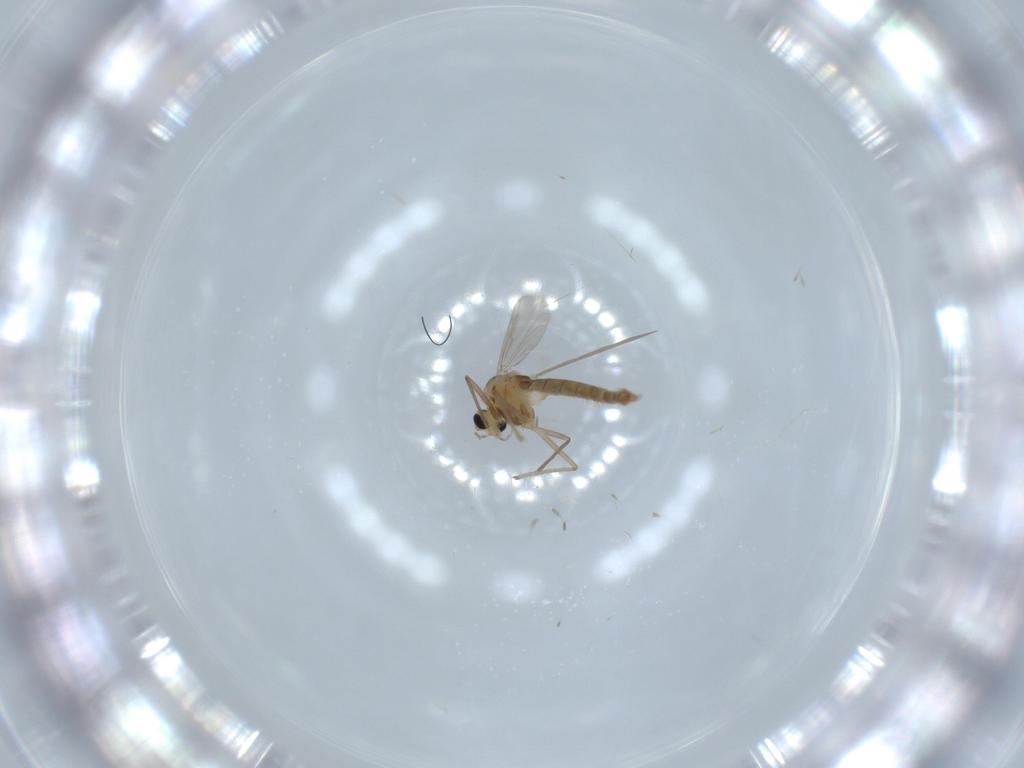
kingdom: Animalia
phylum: Arthropoda
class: Insecta
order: Diptera
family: Chironomidae
